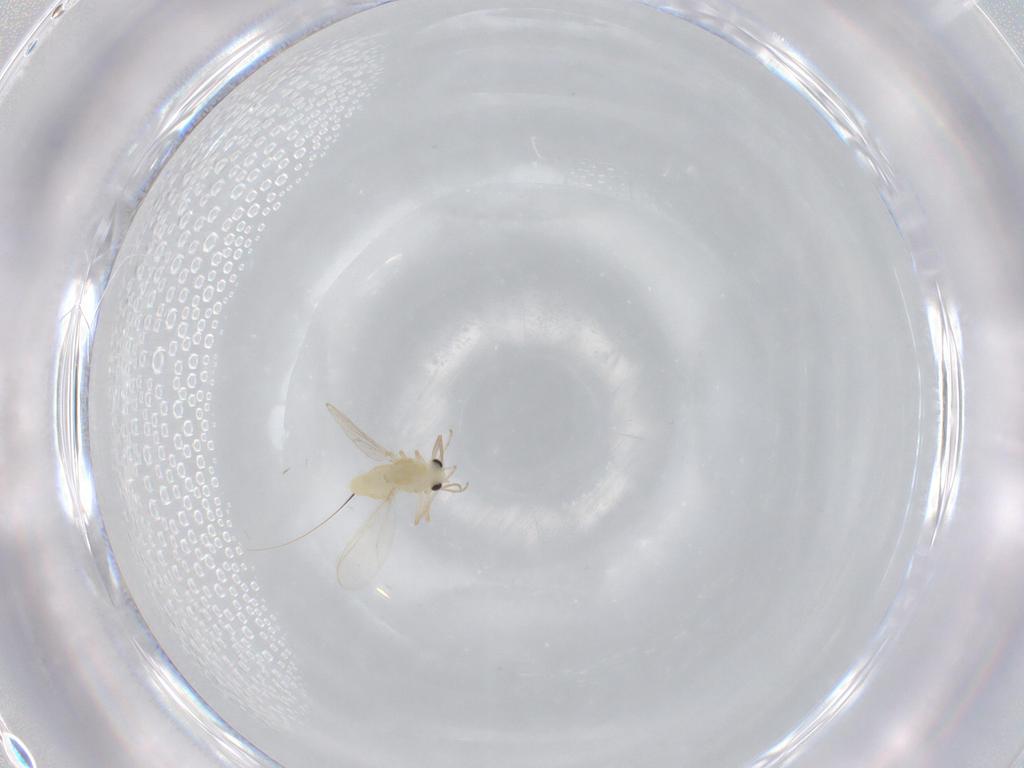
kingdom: Animalia
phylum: Arthropoda
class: Insecta
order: Diptera
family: Chironomidae
